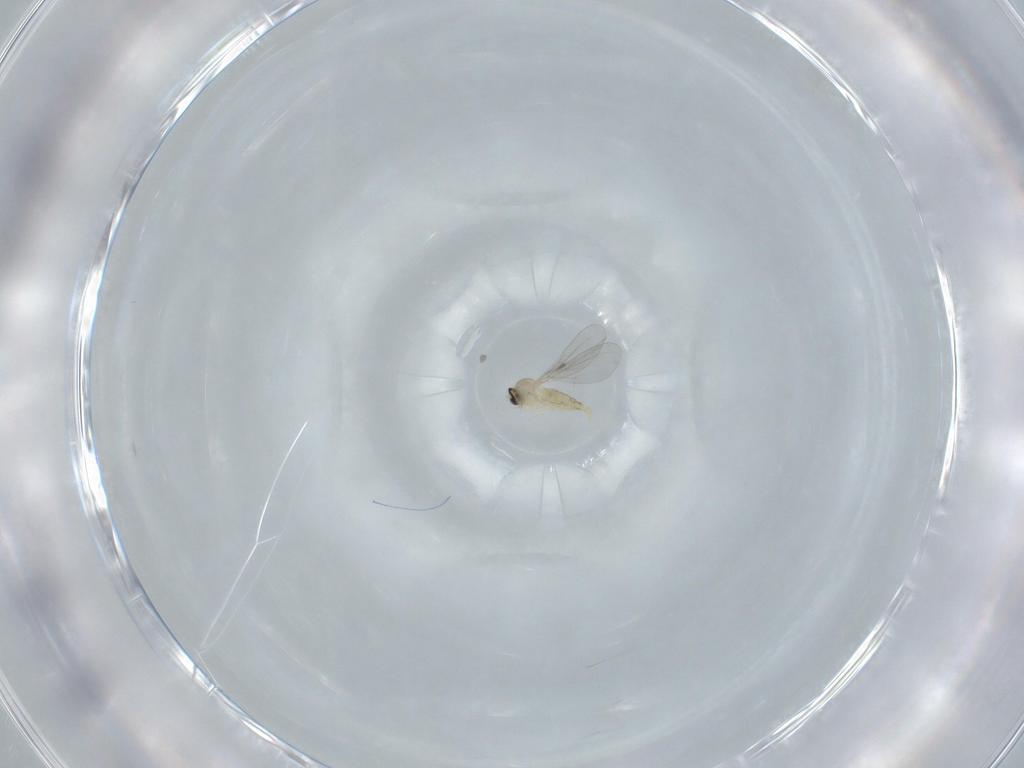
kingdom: Animalia
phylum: Arthropoda
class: Insecta
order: Diptera
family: Cecidomyiidae
